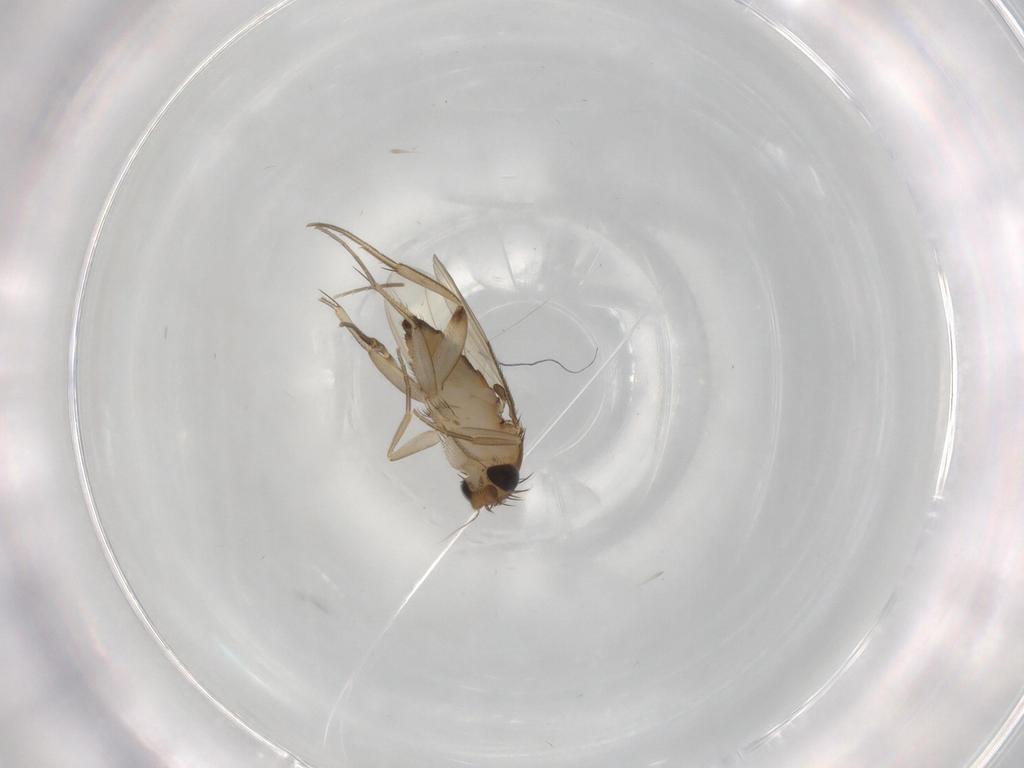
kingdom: Animalia
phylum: Arthropoda
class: Insecta
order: Diptera
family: Phoridae
